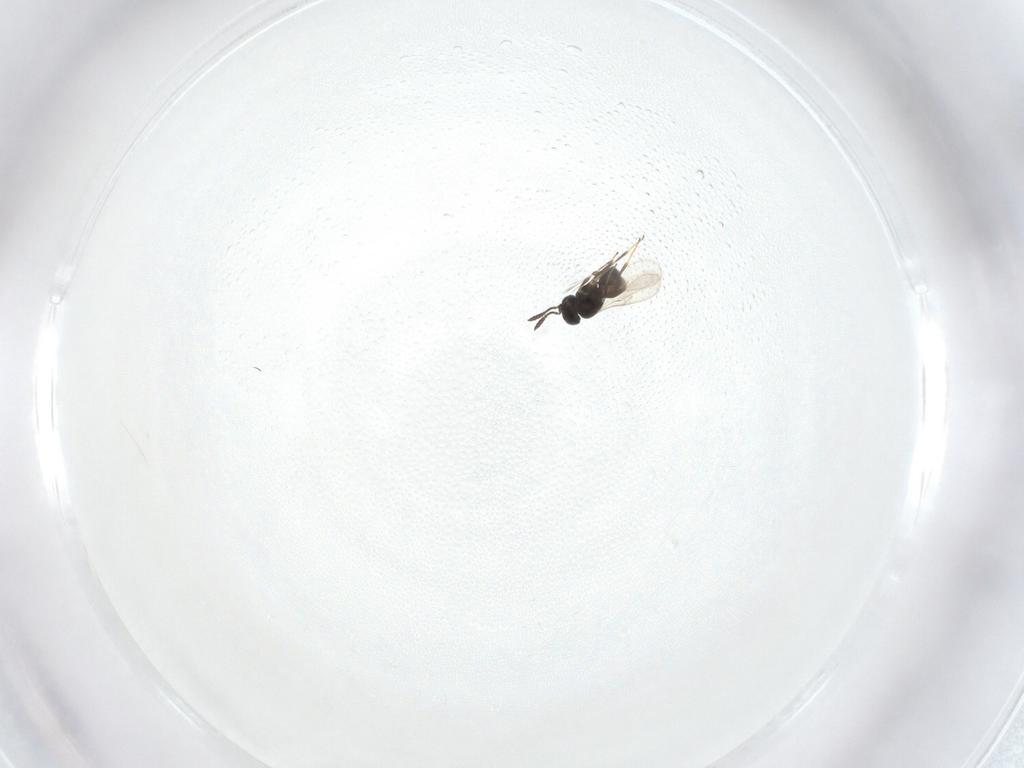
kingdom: Animalia
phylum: Arthropoda
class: Insecta
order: Hymenoptera
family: Scelionidae
